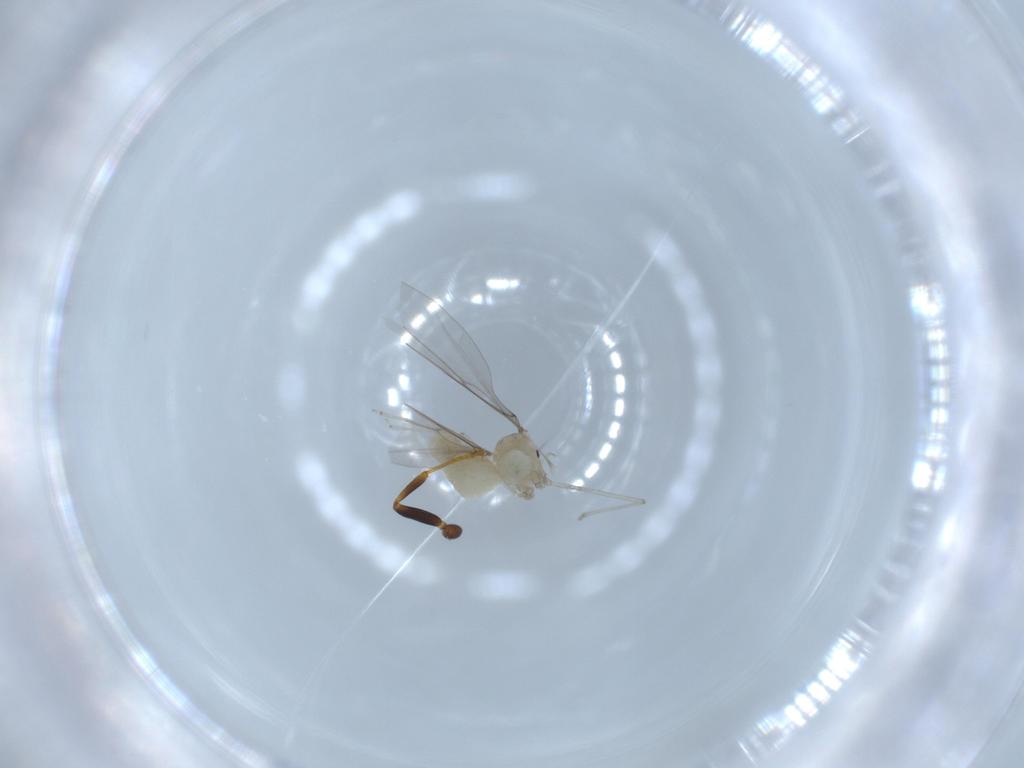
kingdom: Animalia
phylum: Arthropoda
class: Insecta
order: Diptera
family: Cecidomyiidae
